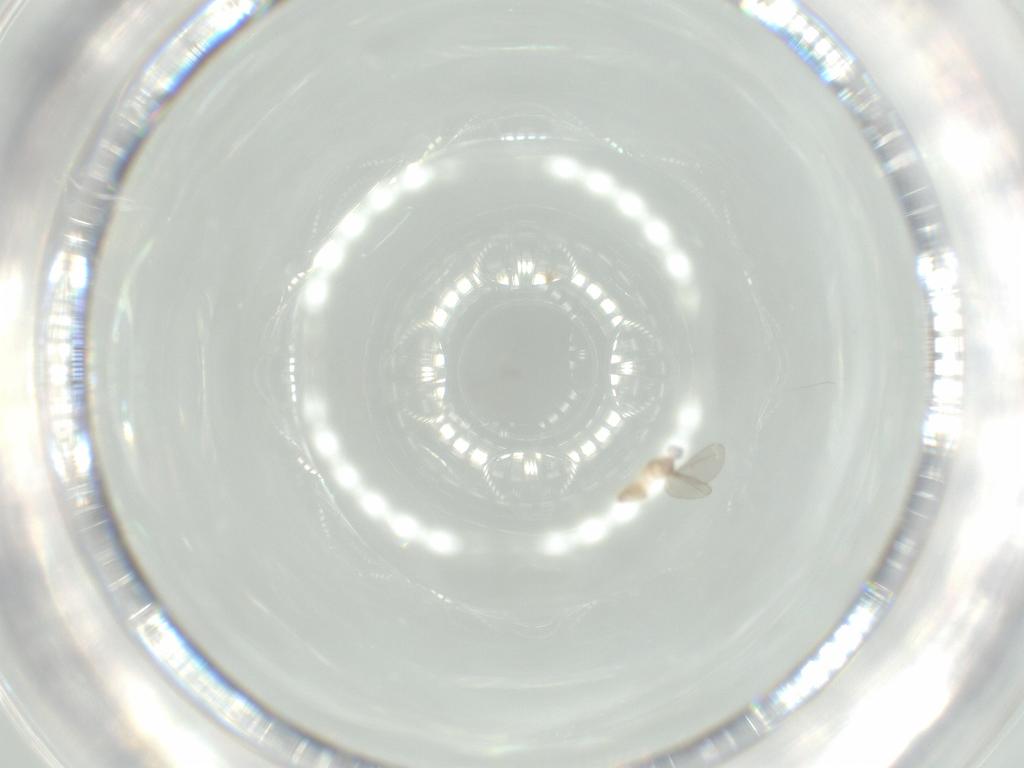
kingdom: Animalia
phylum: Arthropoda
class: Insecta
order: Diptera
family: Cecidomyiidae
